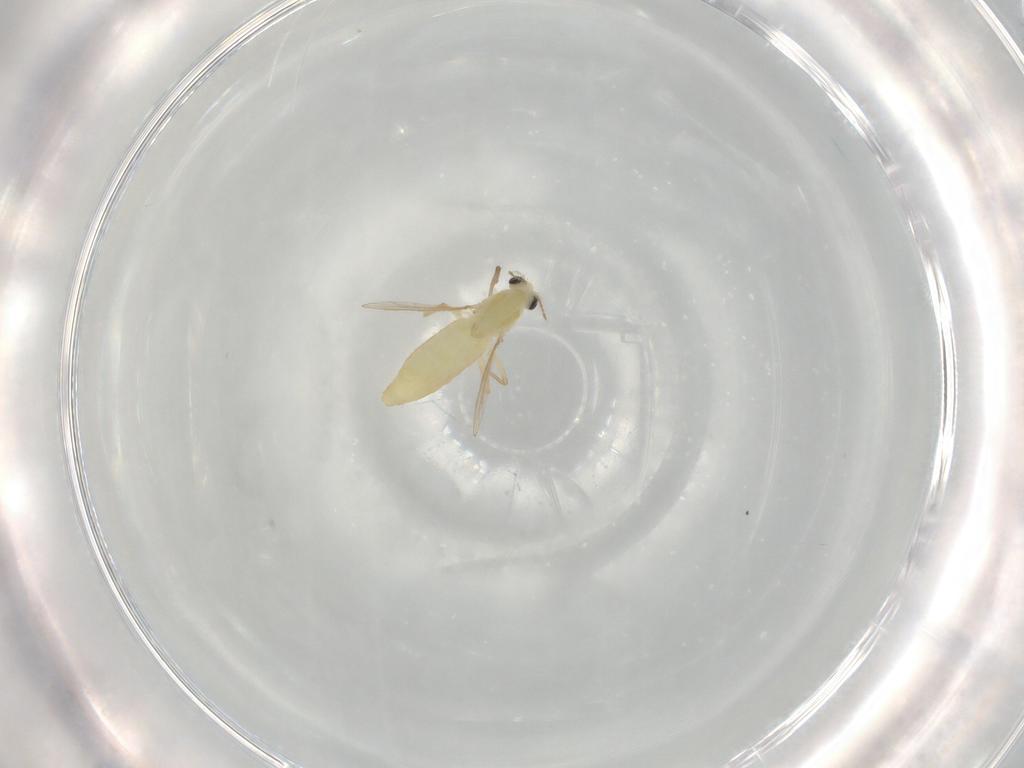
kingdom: Animalia
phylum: Arthropoda
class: Insecta
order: Diptera
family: Chironomidae
